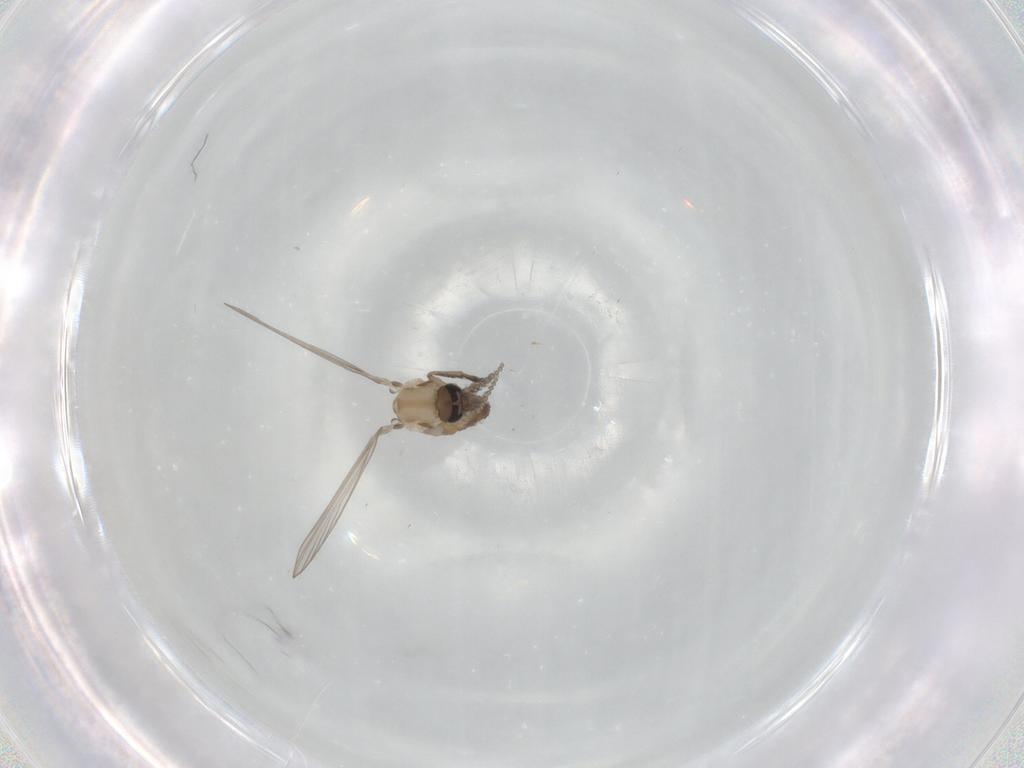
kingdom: Animalia
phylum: Arthropoda
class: Insecta
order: Diptera
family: Psychodidae
